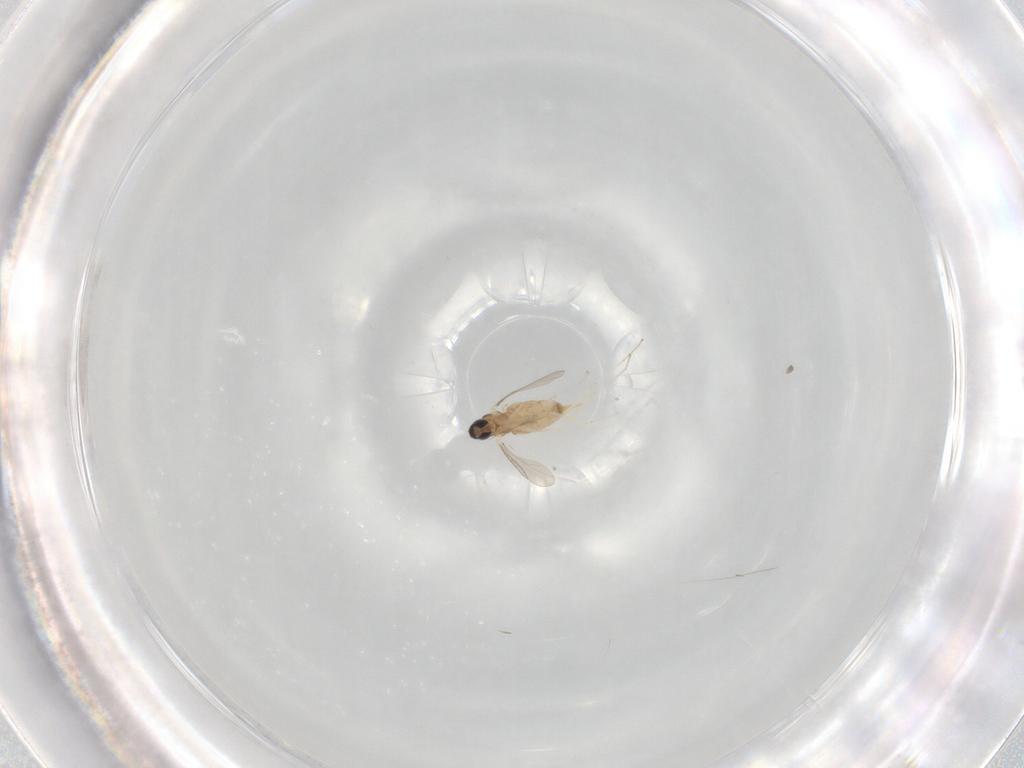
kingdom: Animalia
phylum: Arthropoda
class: Insecta
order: Diptera
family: Cecidomyiidae
